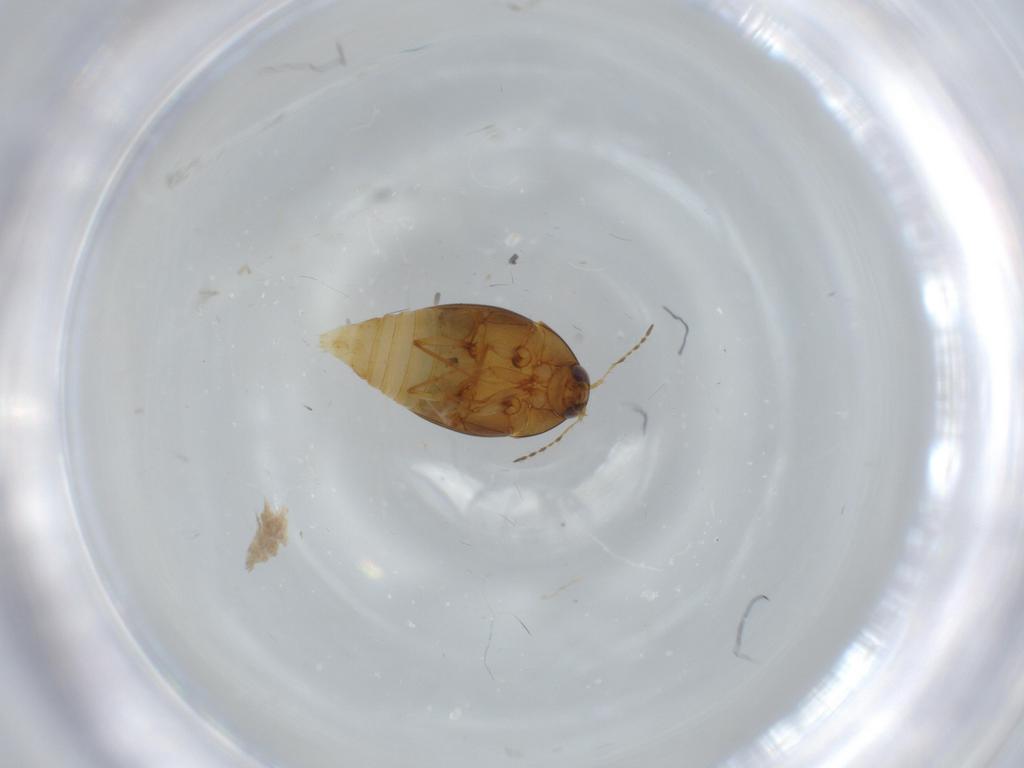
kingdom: Animalia
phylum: Arthropoda
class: Insecta
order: Coleoptera
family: Staphylinidae
